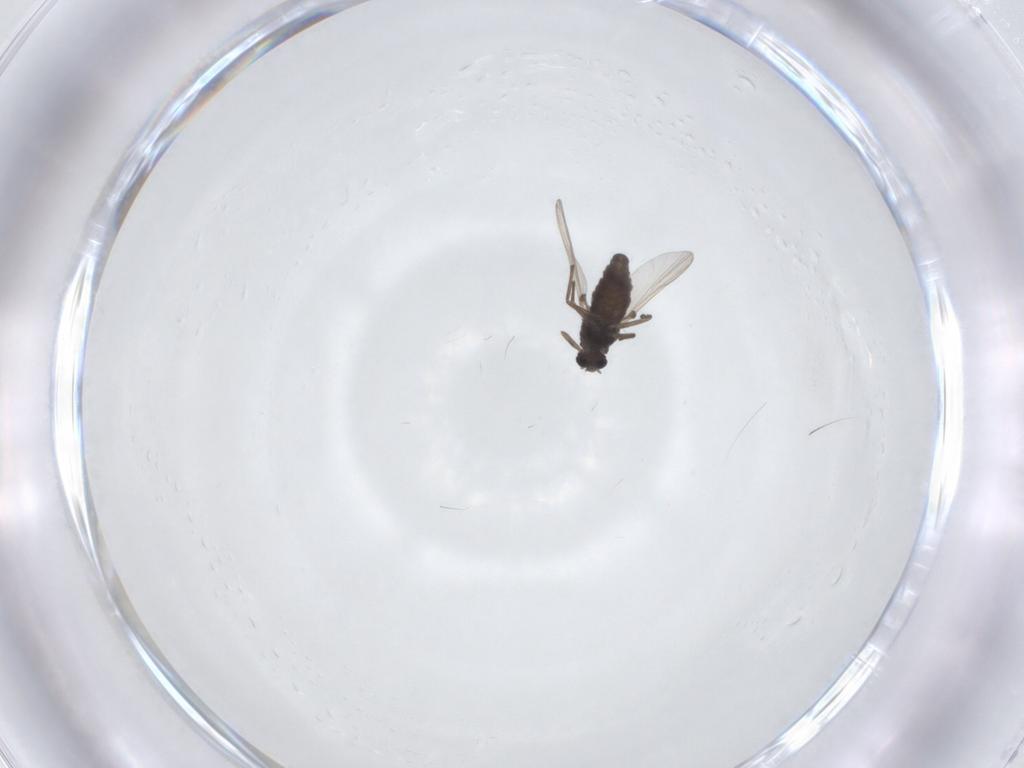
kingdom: Animalia
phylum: Arthropoda
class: Insecta
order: Diptera
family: Chironomidae
